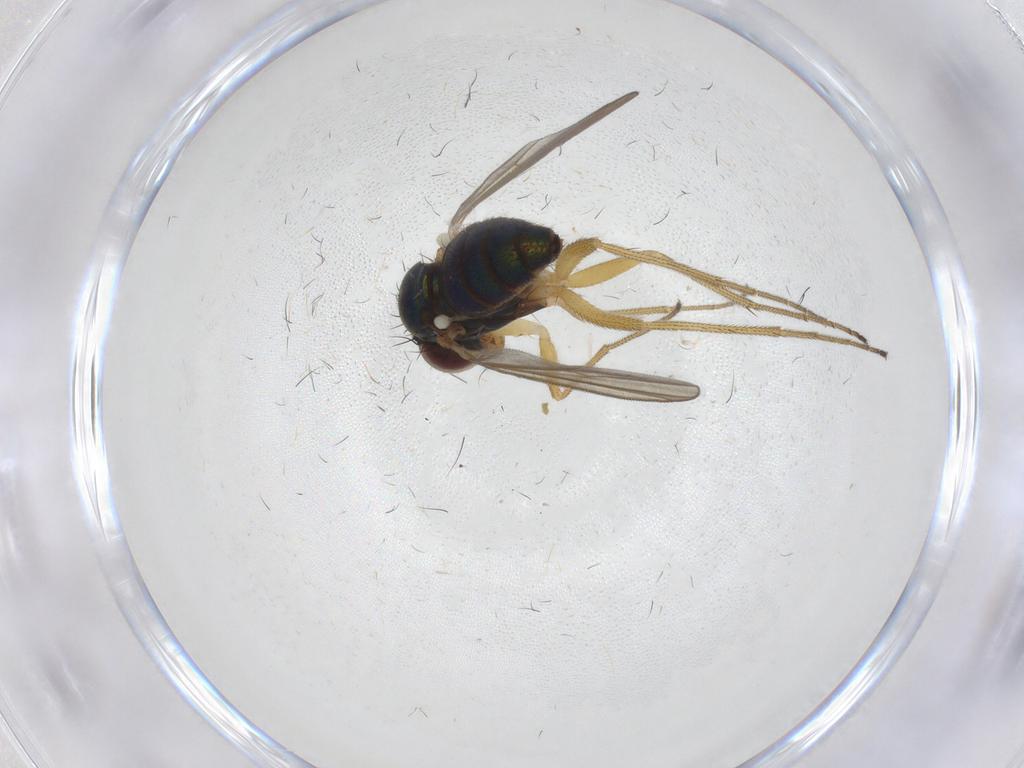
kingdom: Animalia
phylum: Arthropoda
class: Insecta
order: Diptera
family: Dolichopodidae
